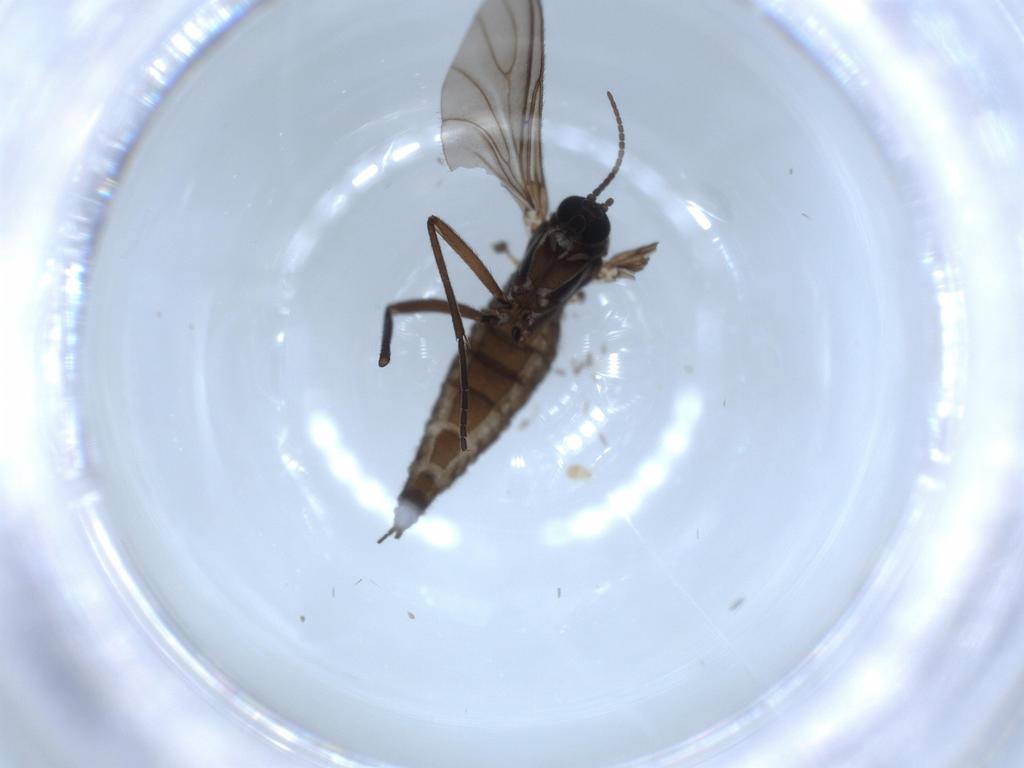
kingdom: Animalia
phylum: Arthropoda
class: Insecta
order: Diptera
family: Sciaridae
